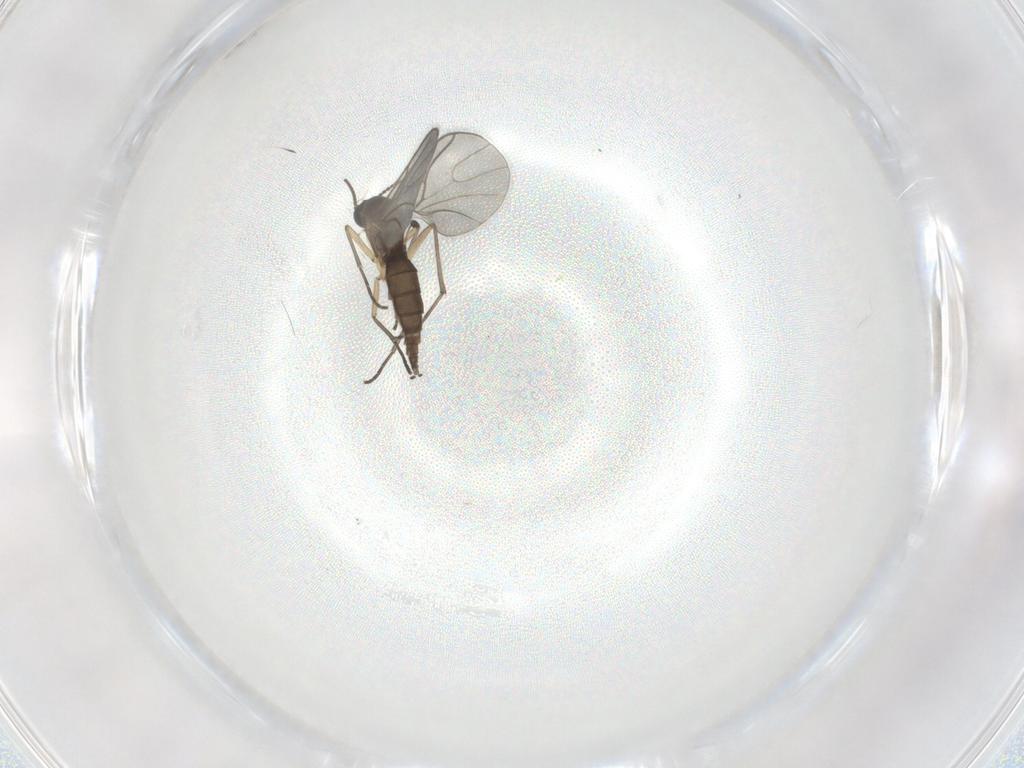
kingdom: Animalia
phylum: Arthropoda
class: Insecta
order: Diptera
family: Sciaridae
